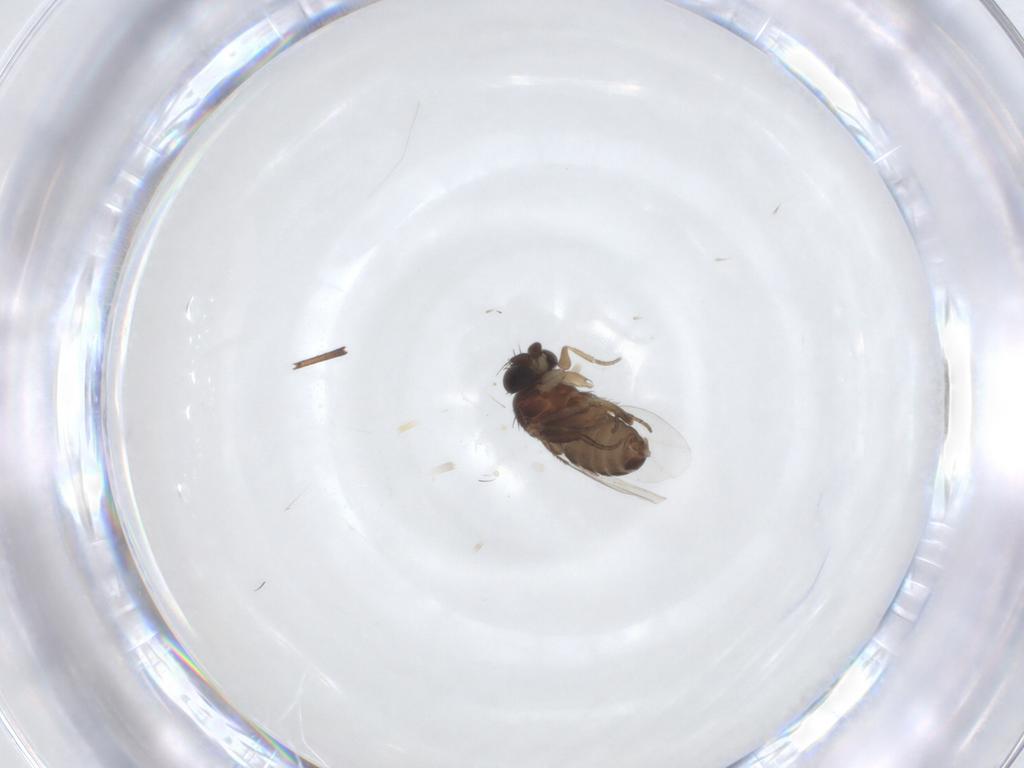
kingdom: Animalia
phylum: Arthropoda
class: Insecta
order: Diptera
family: Phoridae
